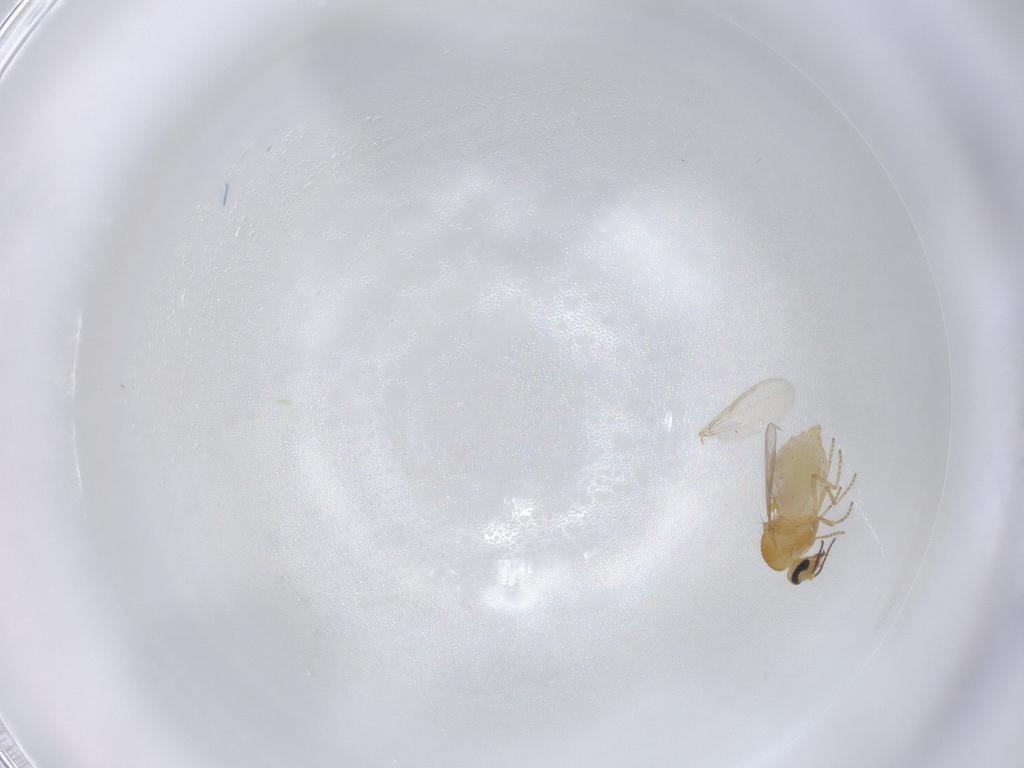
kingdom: Animalia
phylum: Arthropoda
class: Insecta
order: Diptera
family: Ceratopogonidae
